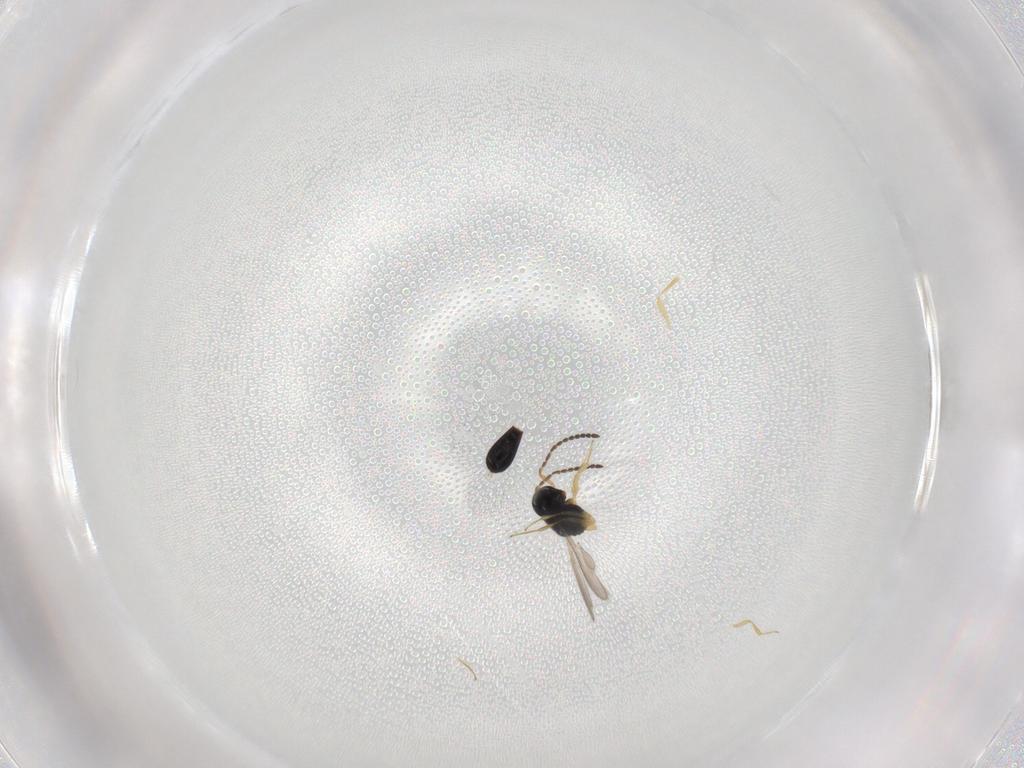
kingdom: Animalia
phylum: Arthropoda
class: Insecta
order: Hymenoptera
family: Scelionidae
